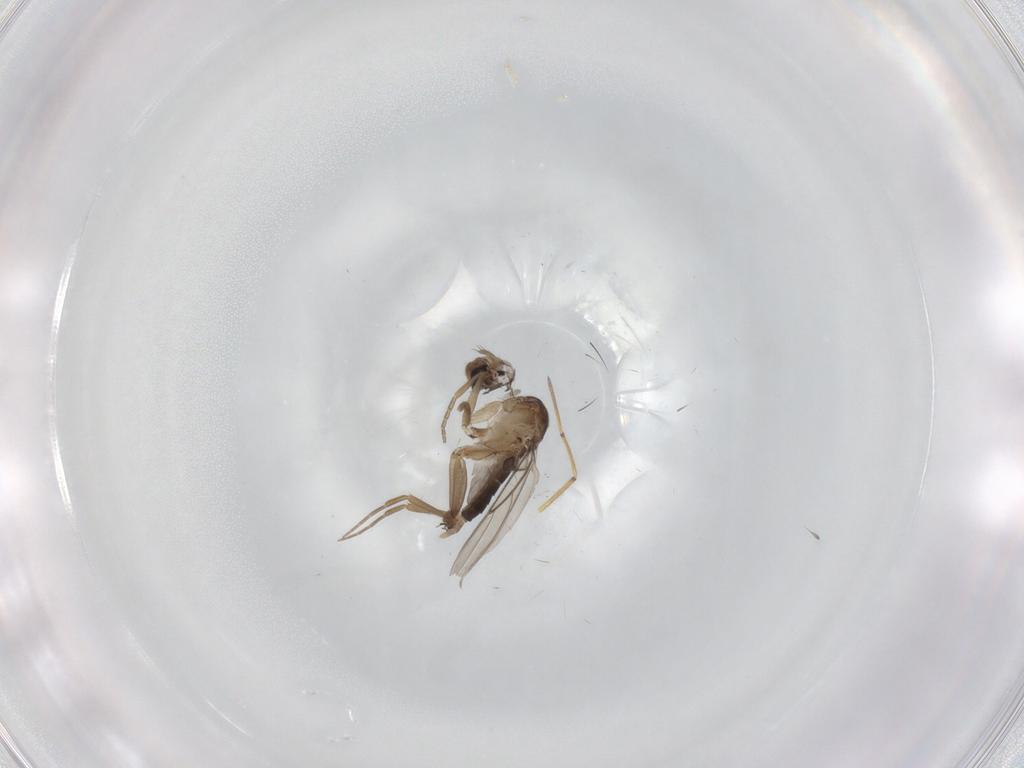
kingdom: Animalia
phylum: Arthropoda
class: Insecta
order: Diptera
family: Phoridae
